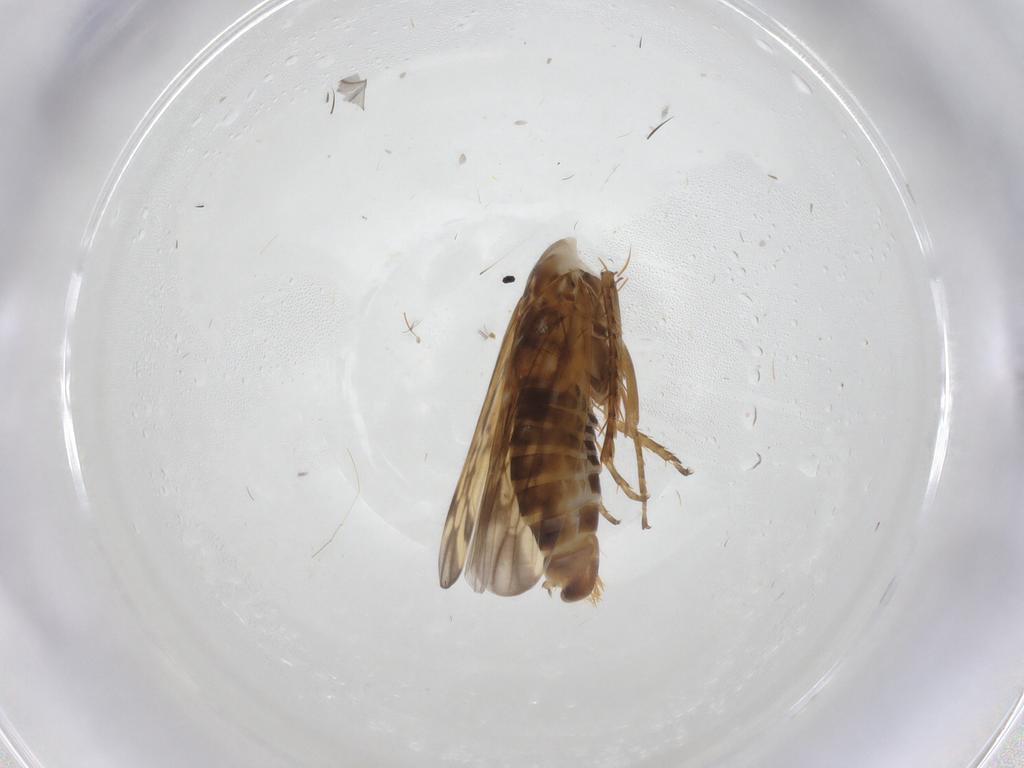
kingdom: Animalia
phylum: Arthropoda
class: Insecta
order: Hemiptera
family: Cicadellidae
